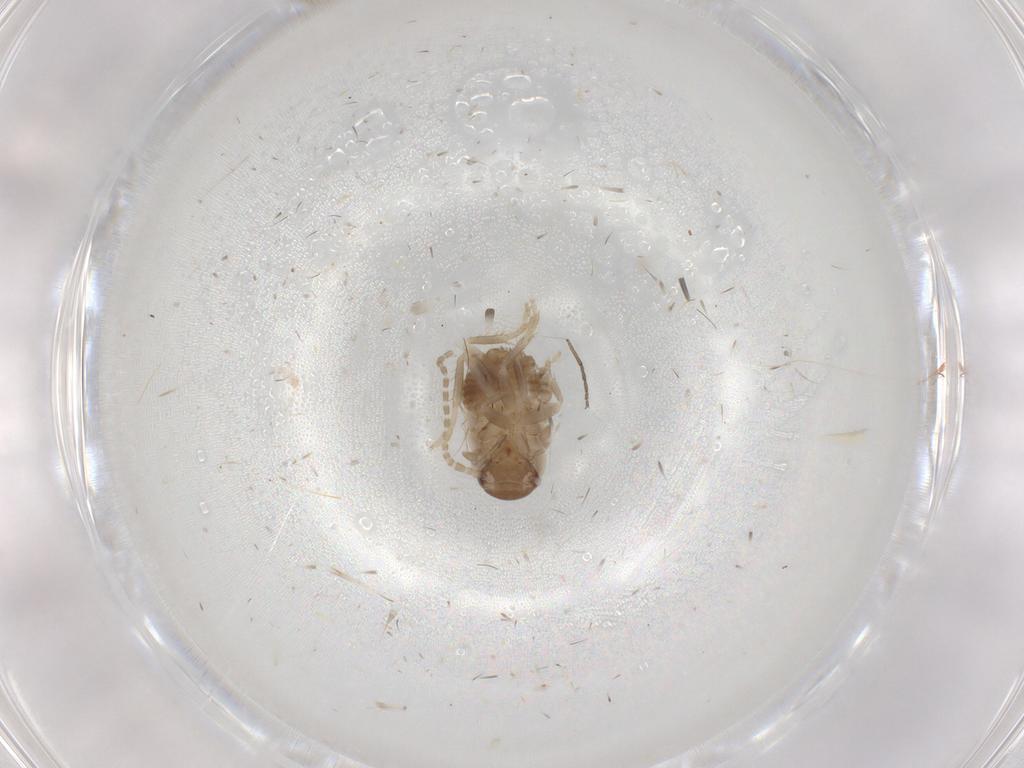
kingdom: Animalia
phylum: Arthropoda
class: Insecta
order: Blattodea
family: Ectobiidae
